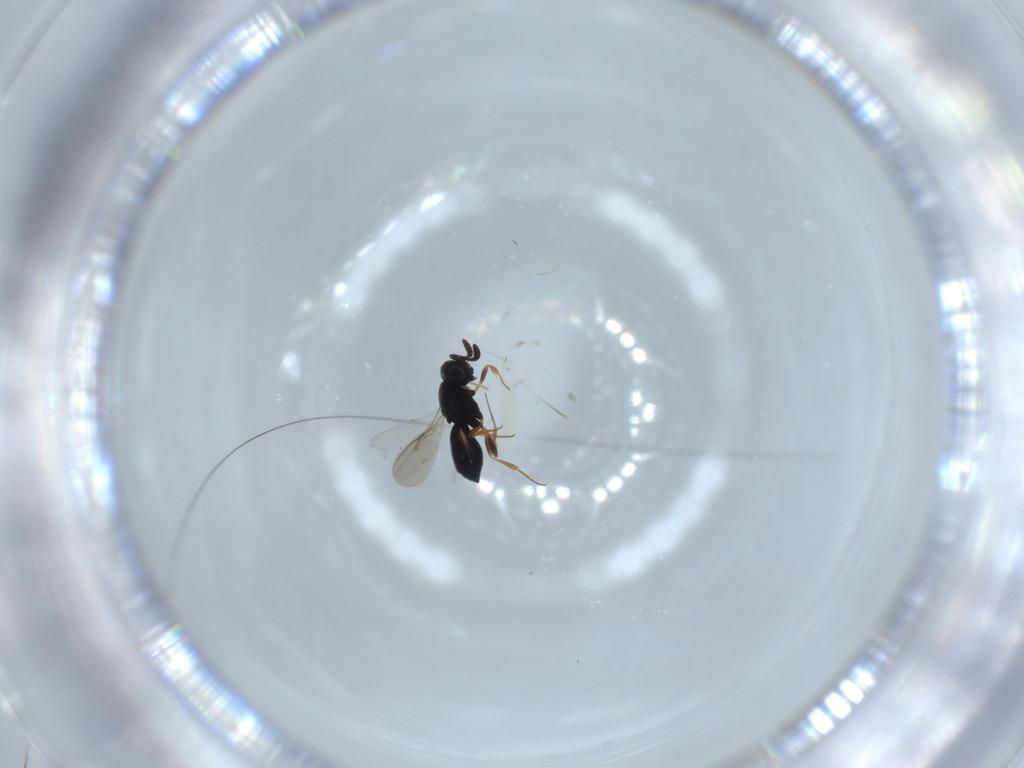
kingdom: Animalia
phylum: Arthropoda
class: Insecta
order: Hymenoptera
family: Platygastridae
